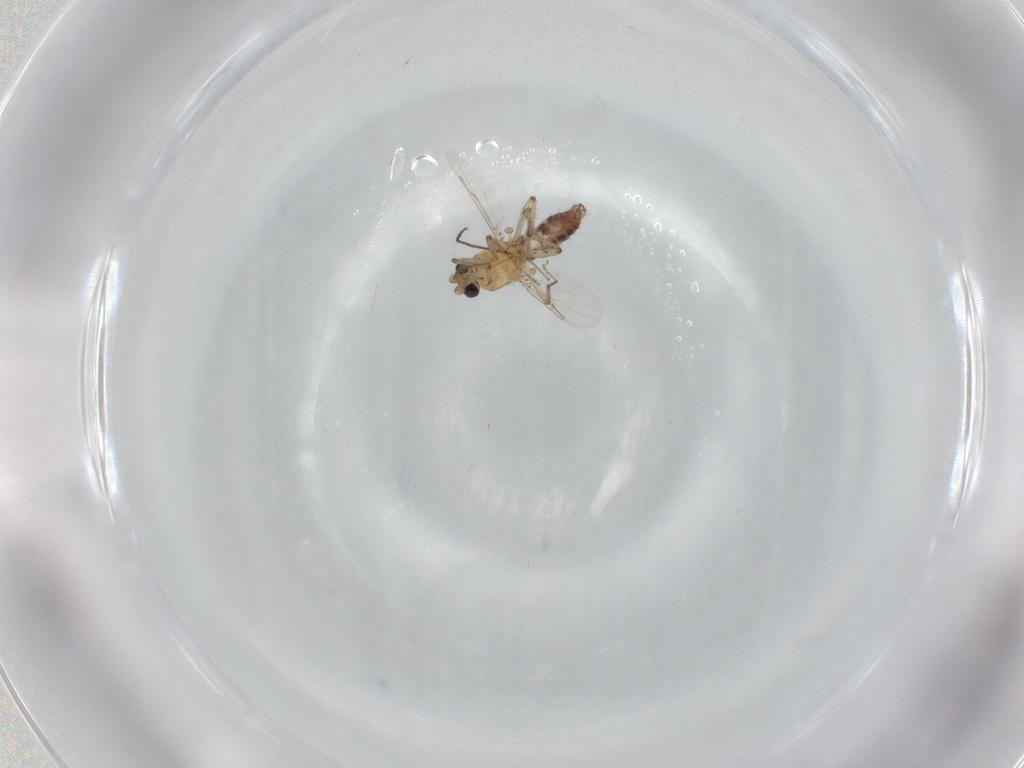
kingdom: Animalia
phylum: Arthropoda
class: Insecta
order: Diptera
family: Ceratopogonidae
